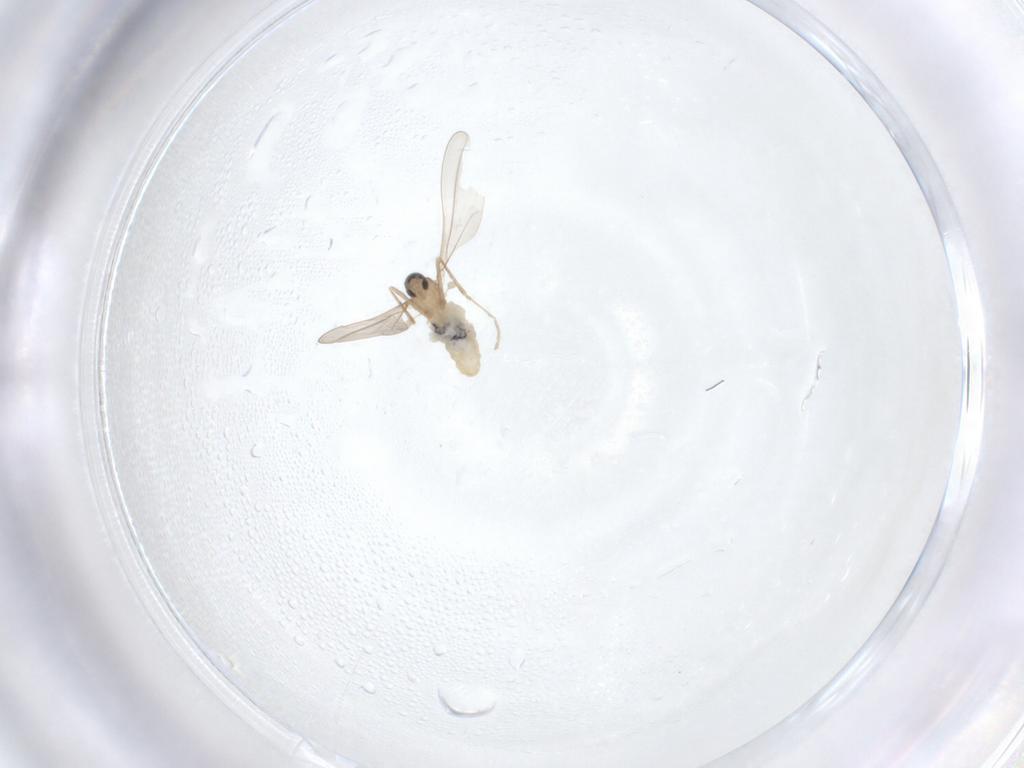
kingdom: Animalia
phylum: Arthropoda
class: Insecta
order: Diptera
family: Cecidomyiidae
